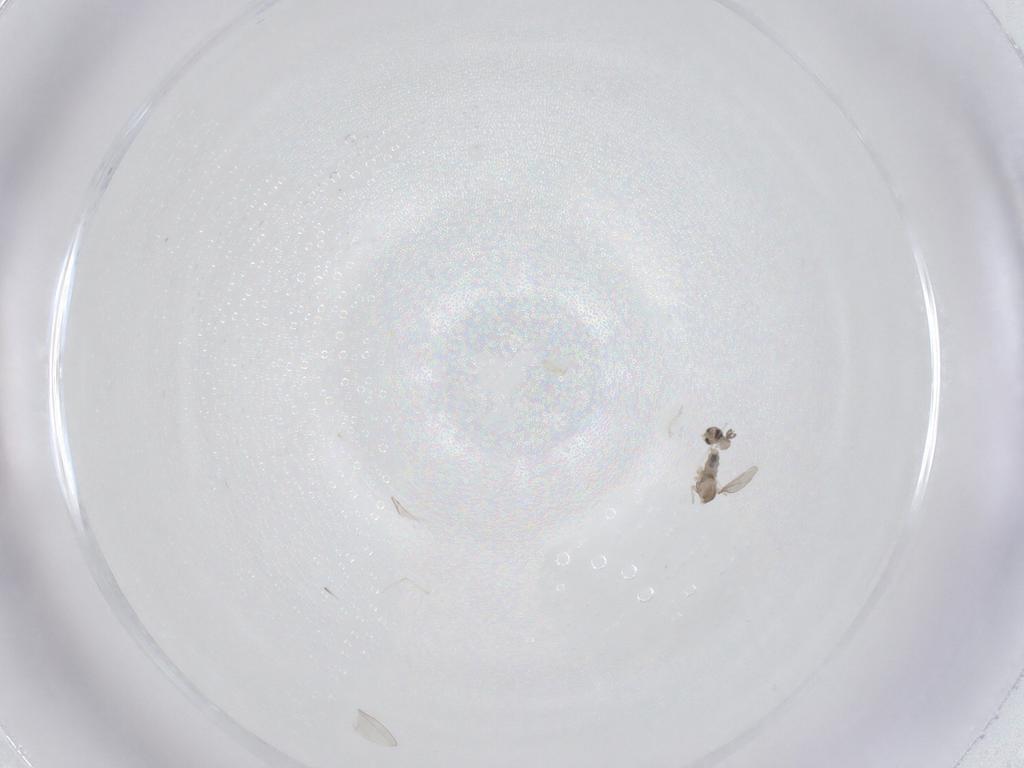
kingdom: Animalia
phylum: Arthropoda
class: Insecta
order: Diptera
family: Cecidomyiidae
